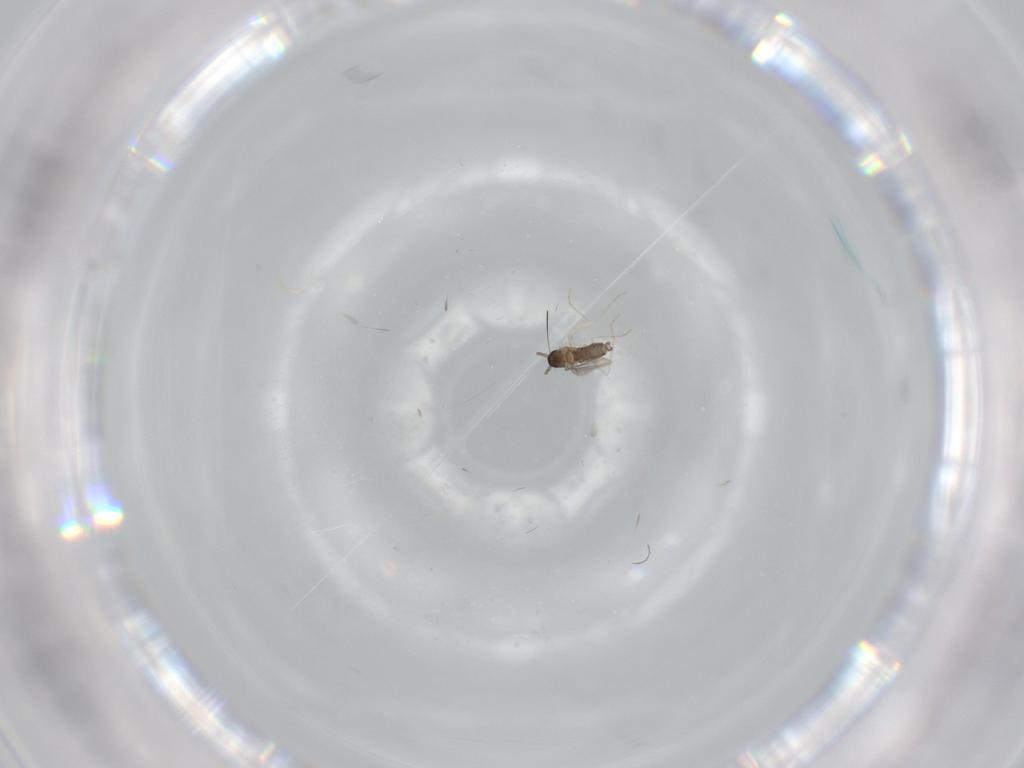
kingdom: Animalia
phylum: Arthropoda
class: Insecta
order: Diptera
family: Cecidomyiidae
